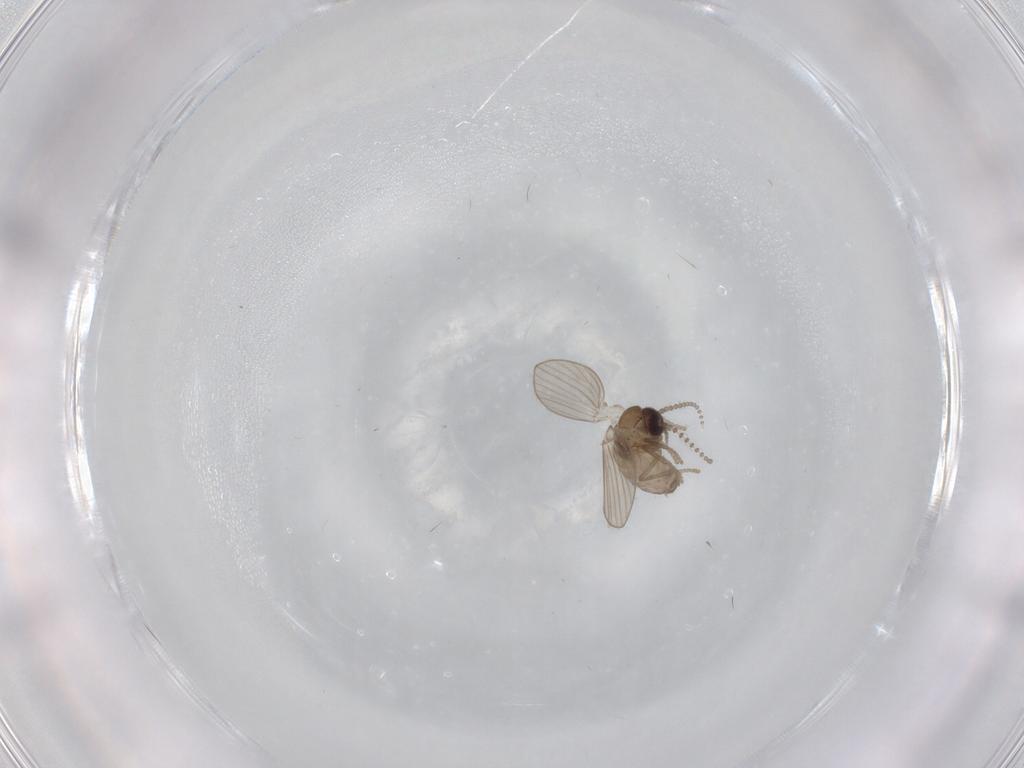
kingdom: Animalia
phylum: Arthropoda
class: Insecta
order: Diptera
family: Psychodidae
